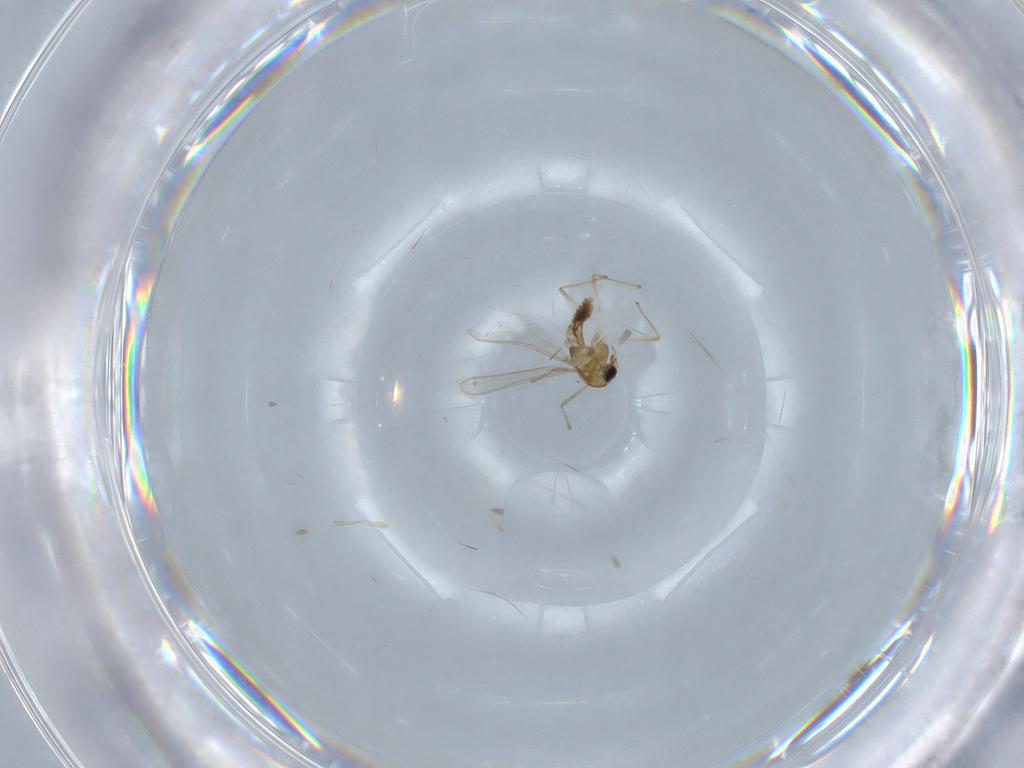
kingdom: Animalia
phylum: Arthropoda
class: Insecta
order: Diptera
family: Chironomidae
